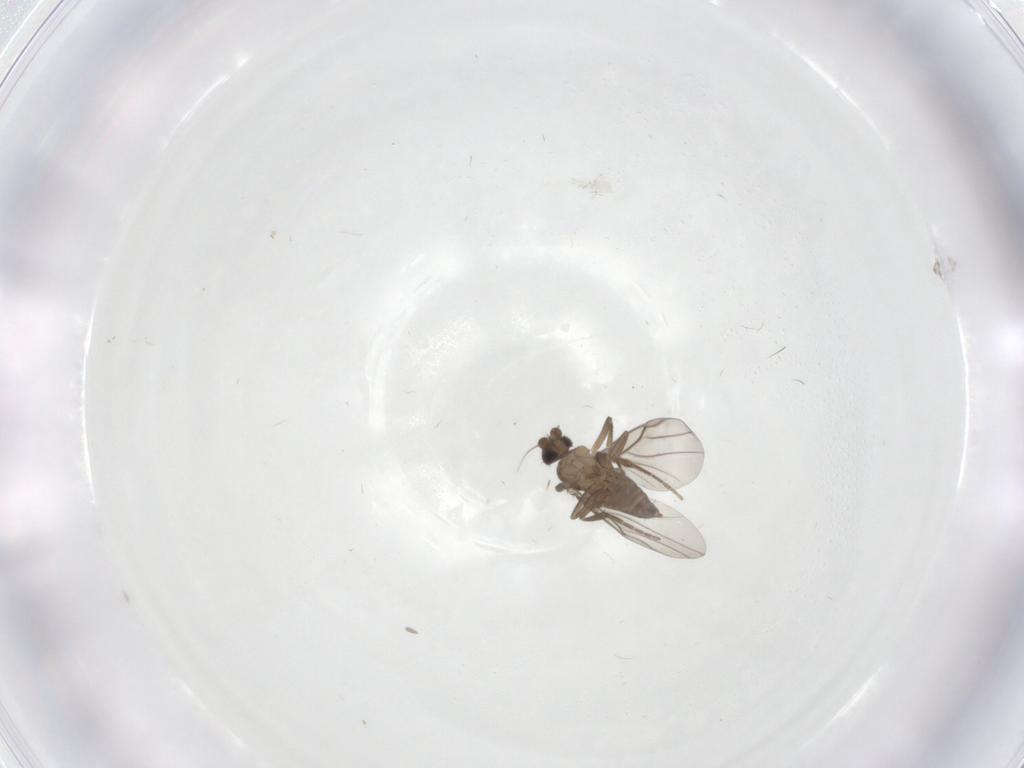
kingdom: Animalia
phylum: Arthropoda
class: Insecta
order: Diptera
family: Phoridae
